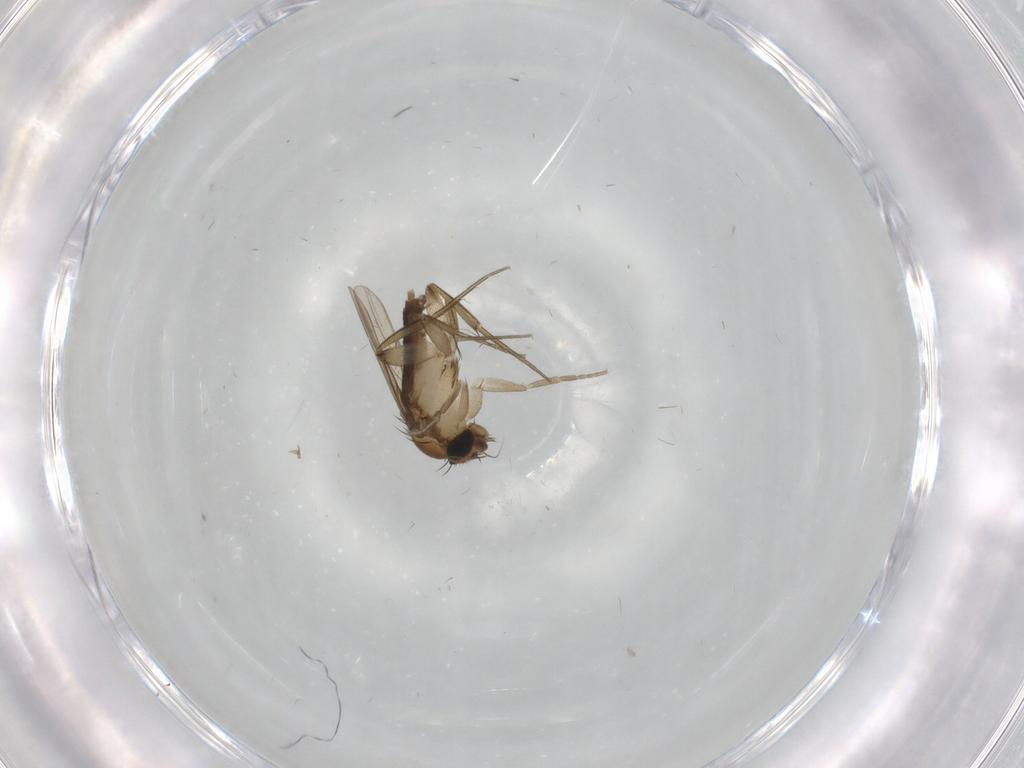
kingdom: Animalia
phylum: Arthropoda
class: Insecta
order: Diptera
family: Phoridae
